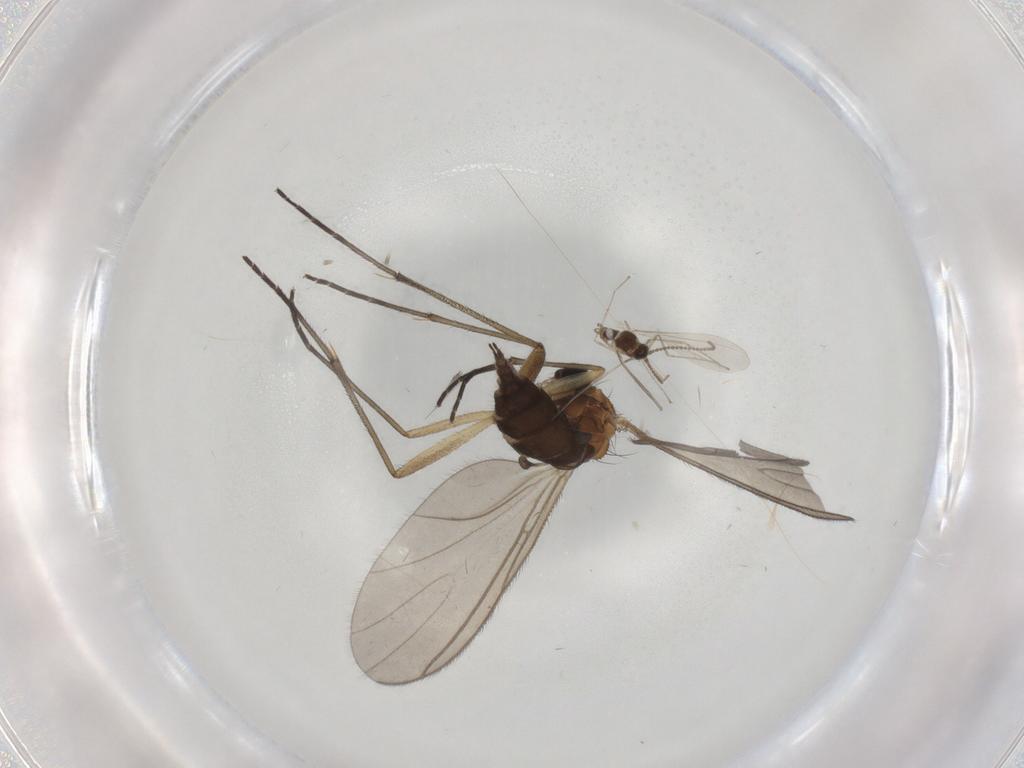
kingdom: Animalia
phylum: Arthropoda
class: Insecta
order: Diptera
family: Sciaridae
